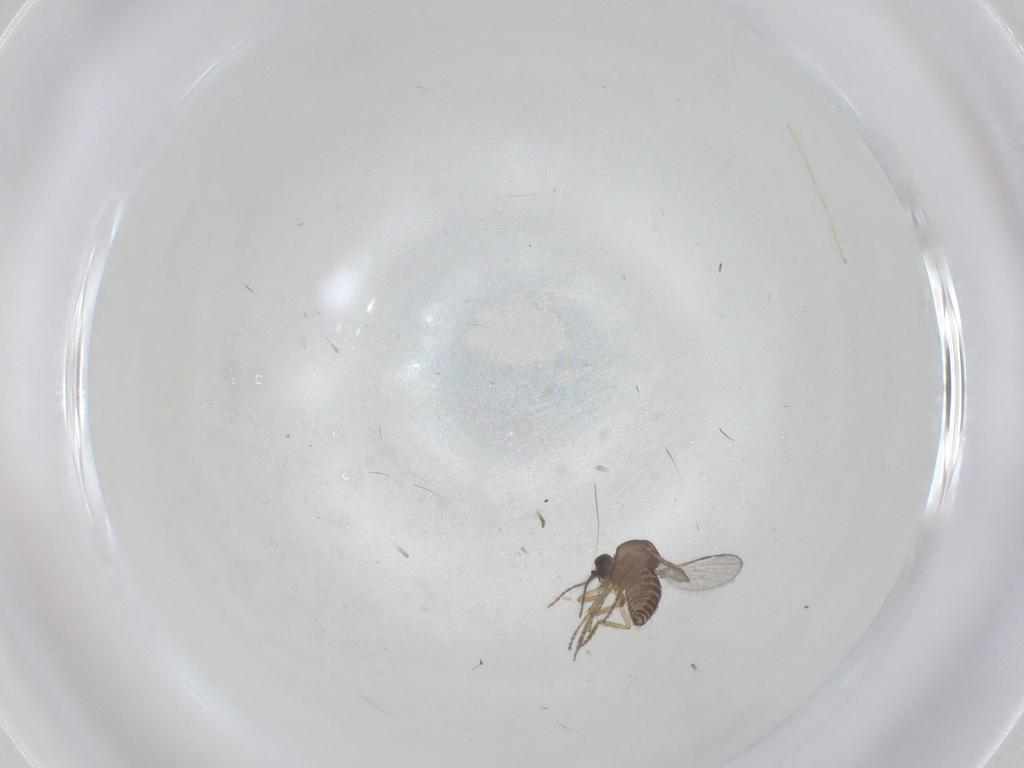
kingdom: Animalia
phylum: Arthropoda
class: Insecta
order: Diptera
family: Ceratopogonidae
